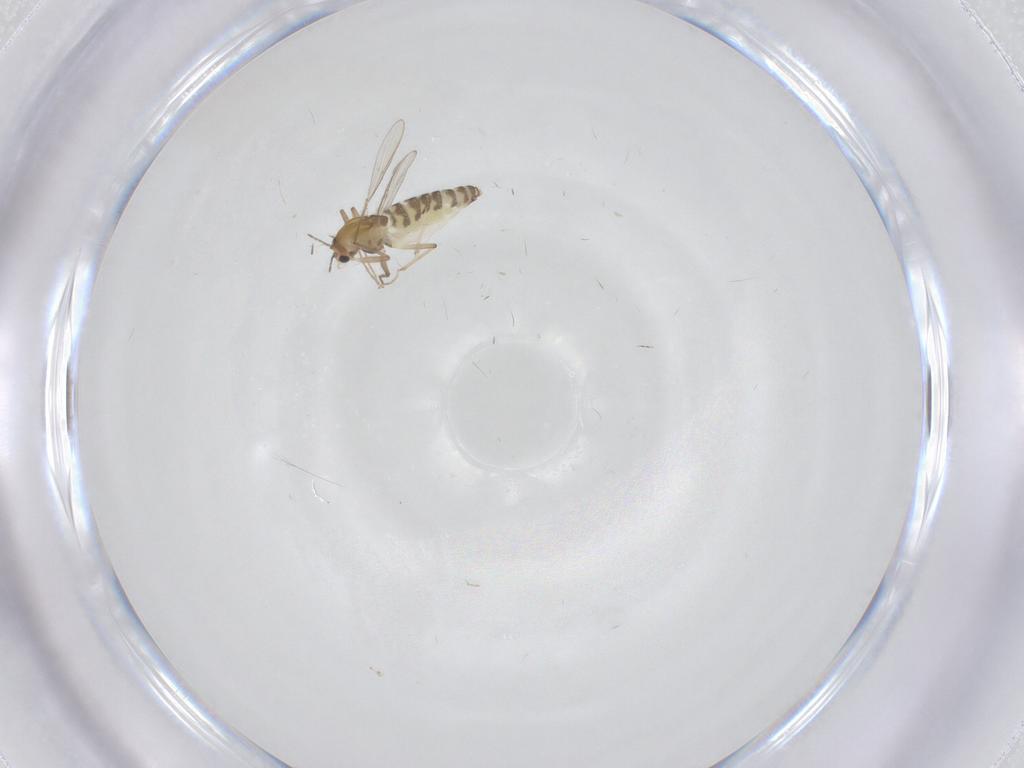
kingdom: Animalia
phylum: Arthropoda
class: Insecta
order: Diptera
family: Chironomidae
